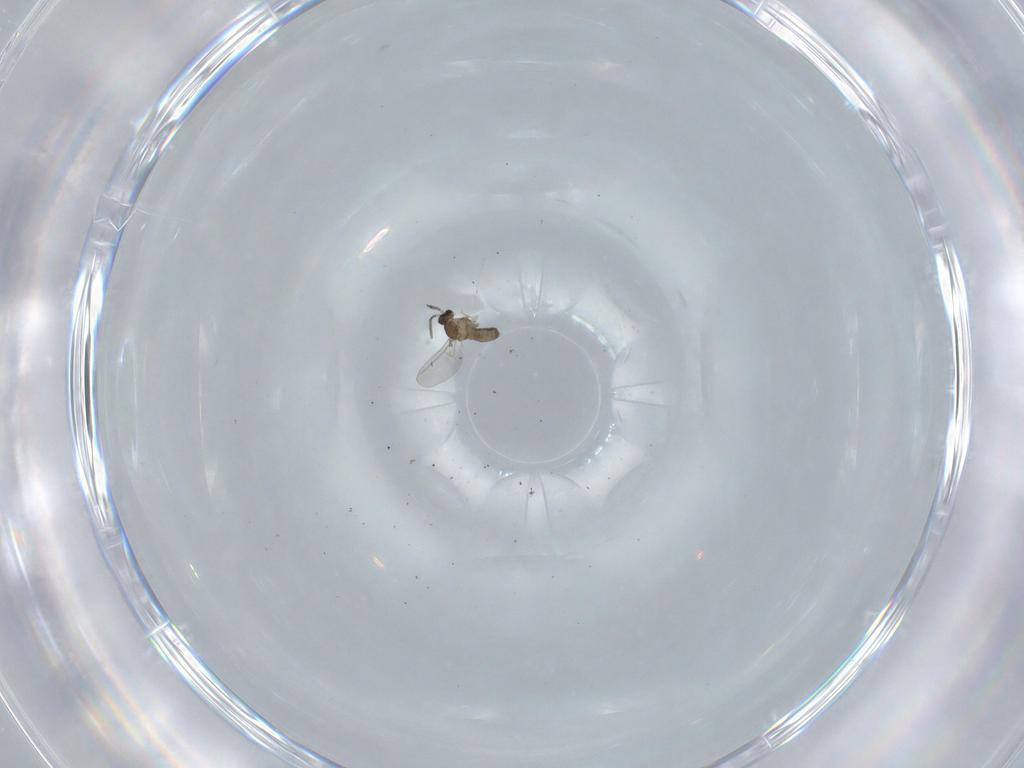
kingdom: Animalia
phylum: Arthropoda
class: Insecta
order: Diptera
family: Cecidomyiidae
